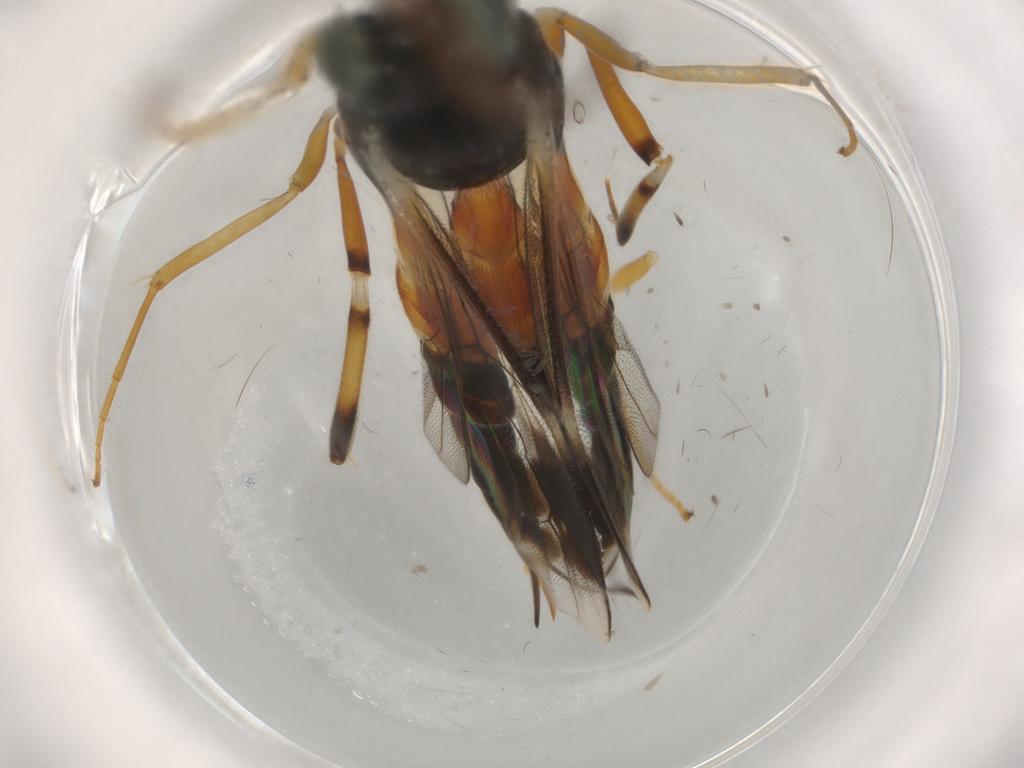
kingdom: Animalia
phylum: Arthropoda
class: Insecta
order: Hymenoptera
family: Ichneumonidae
